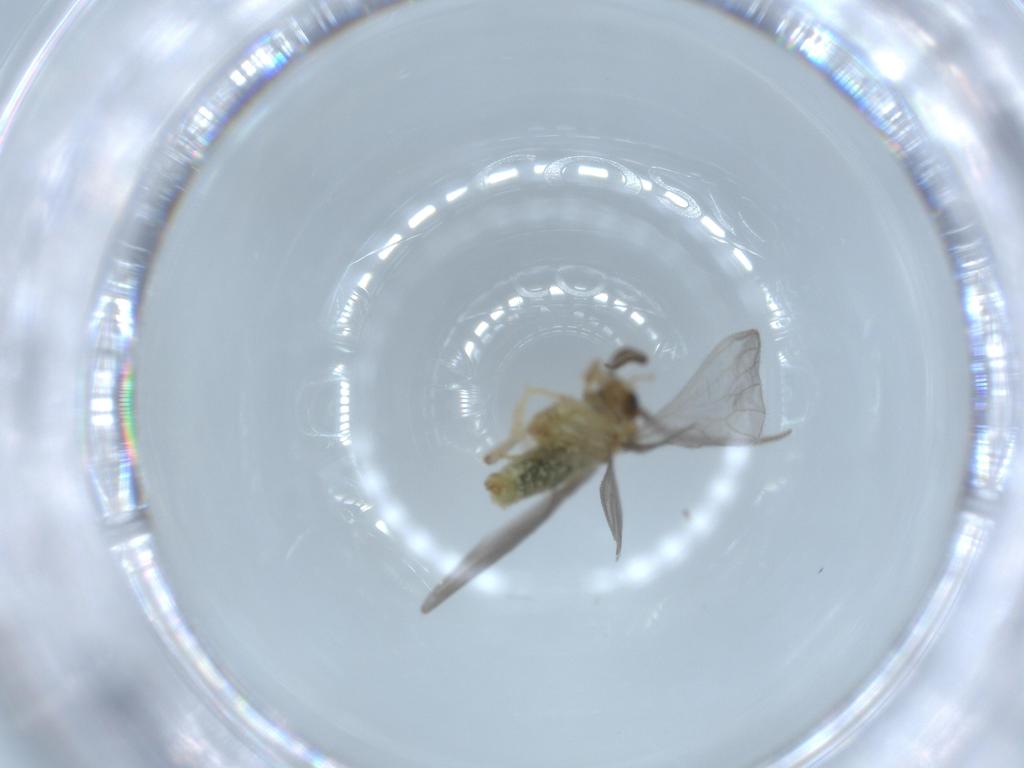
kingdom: Animalia
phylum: Arthropoda
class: Insecta
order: Neuroptera
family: Coniopterygidae
